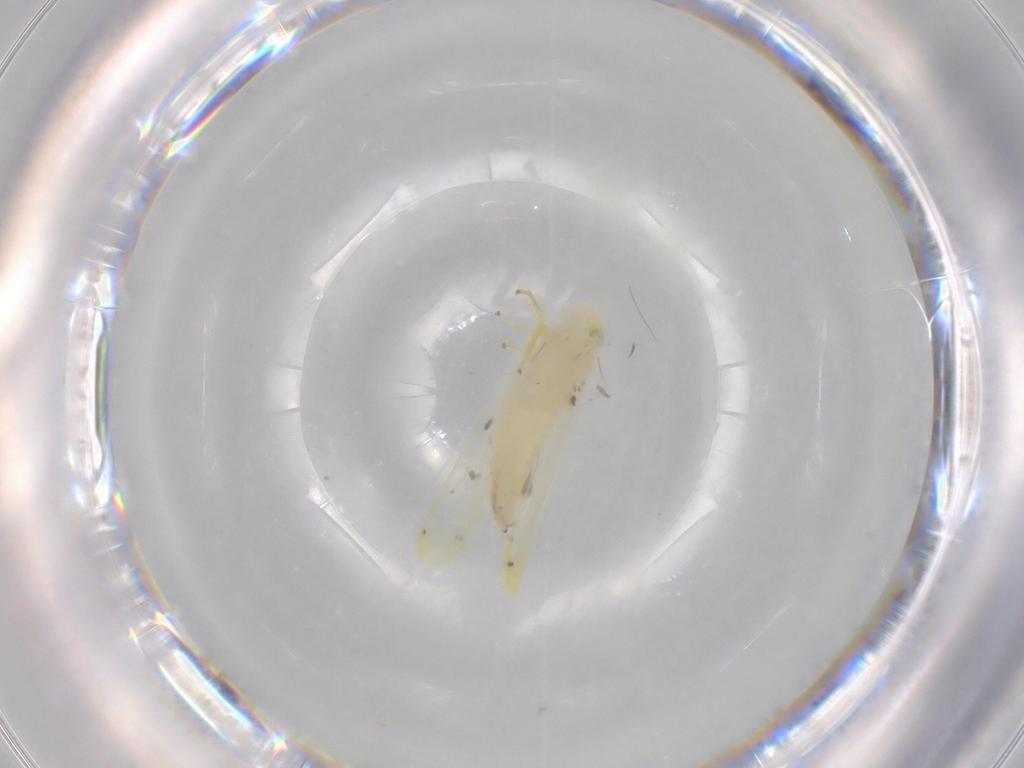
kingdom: Animalia
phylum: Arthropoda
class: Insecta
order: Hemiptera
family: Cicadellidae
